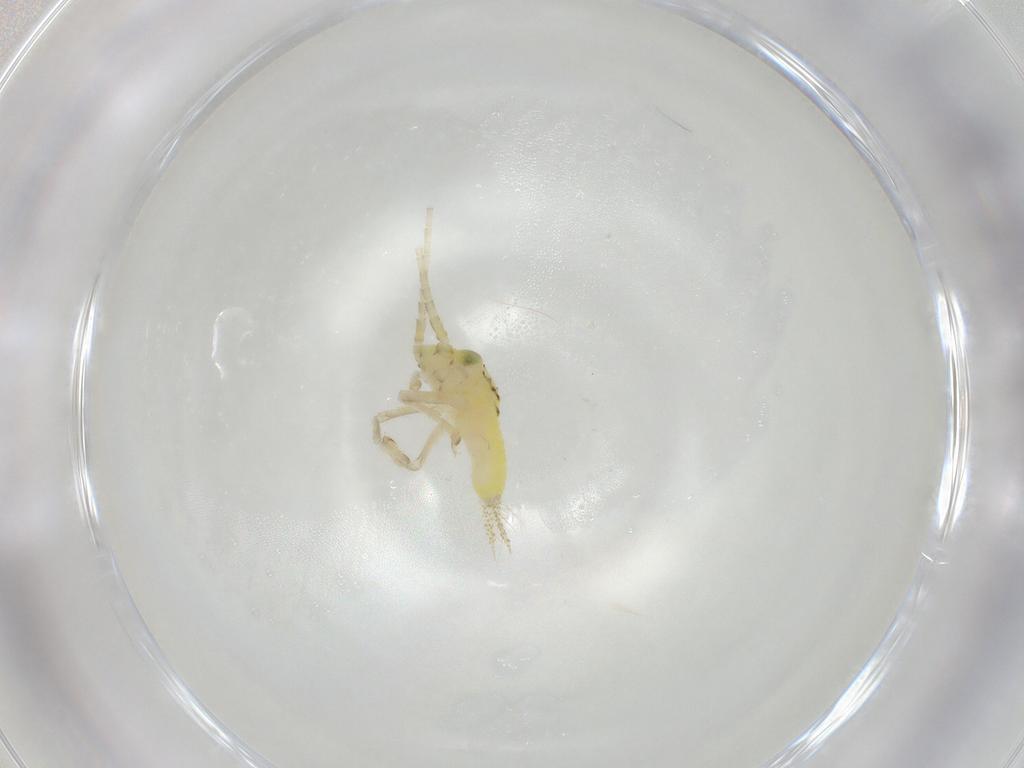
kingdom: Animalia
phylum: Arthropoda
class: Insecta
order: Orthoptera
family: Trigonidiidae
